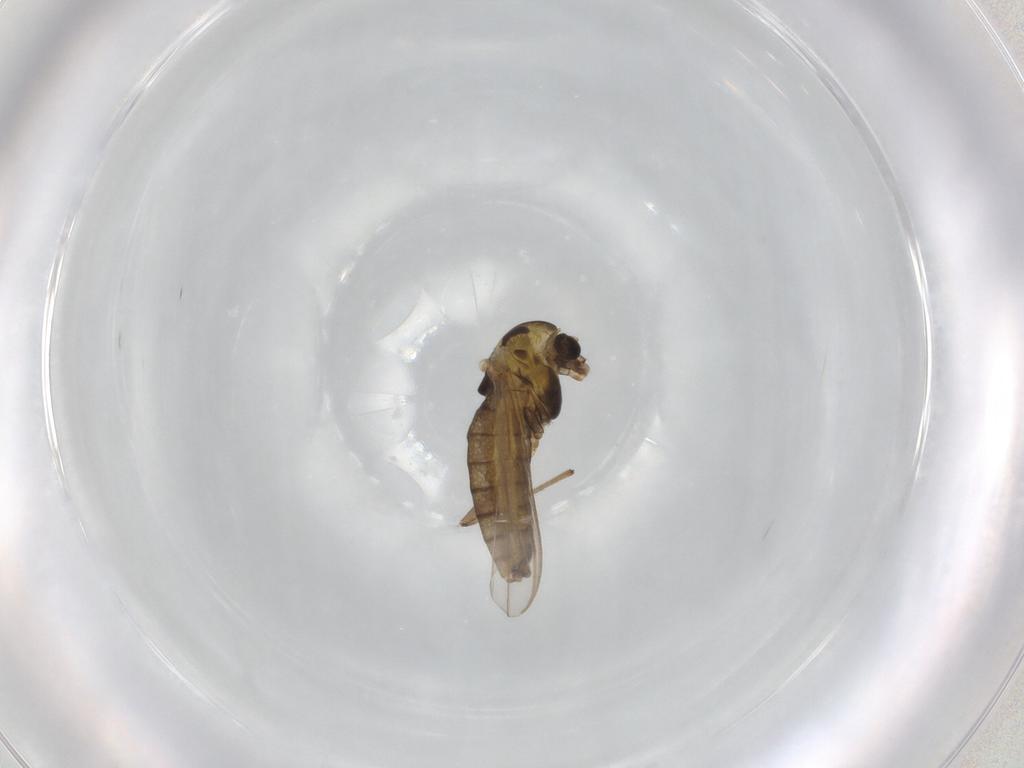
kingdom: Animalia
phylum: Arthropoda
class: Insecta
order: Diptera
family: Chironomidae
